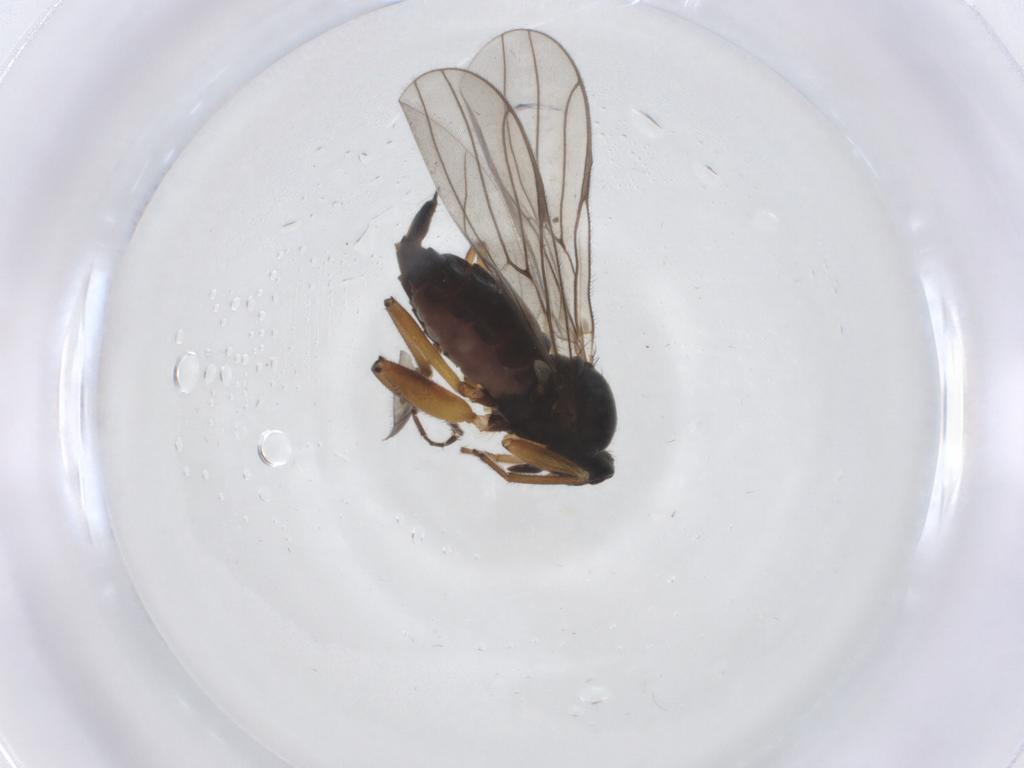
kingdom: Animalia
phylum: Arthropoda
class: Insecta
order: Diptera
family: Hybotidae
